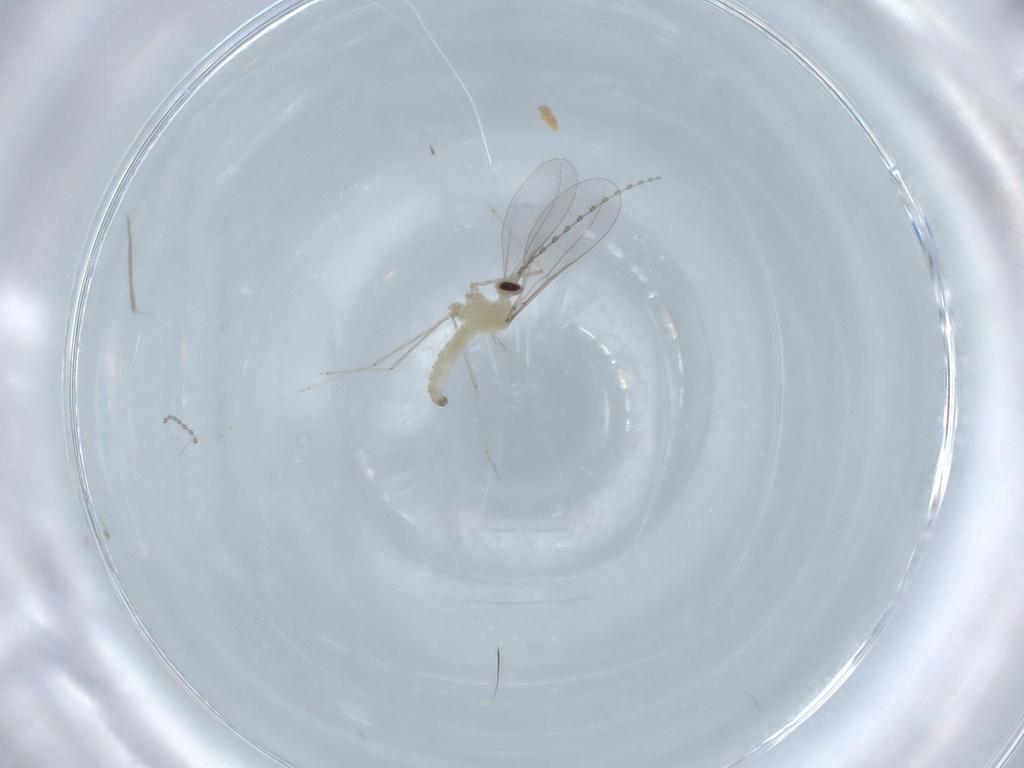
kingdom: Animalia
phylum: Arthropoda
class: Insecta
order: Diptera
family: Cecidomyiidae
